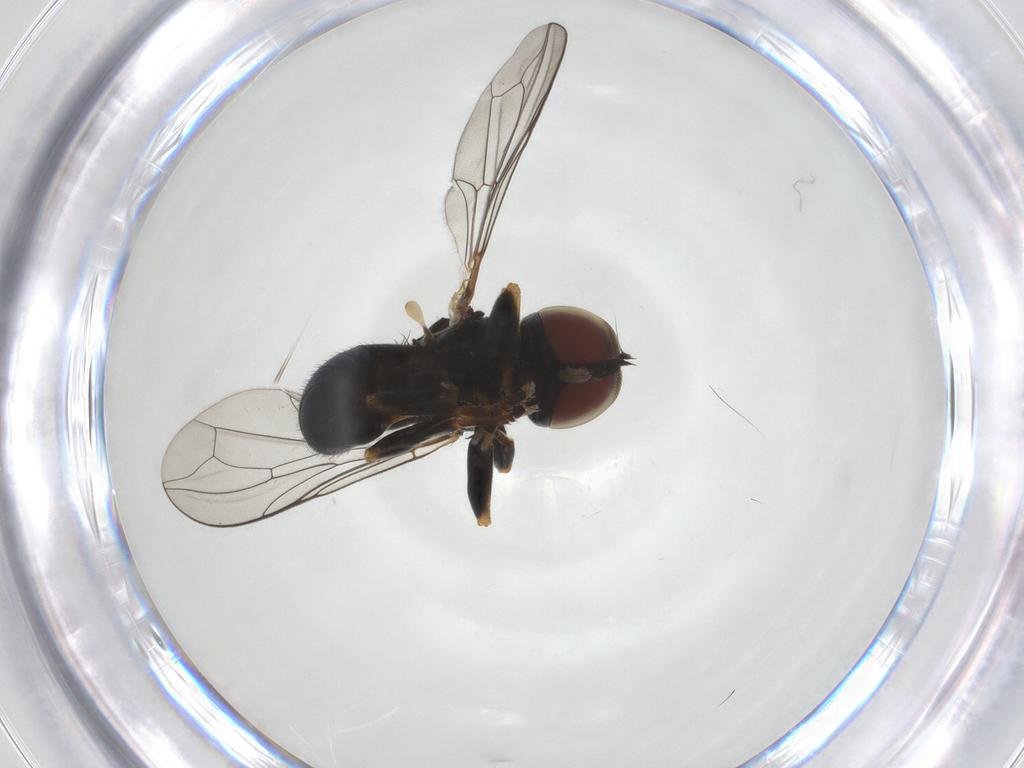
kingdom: Animalia
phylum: Arthropoda
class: Insecta
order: Diptera
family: Pipunculidae
